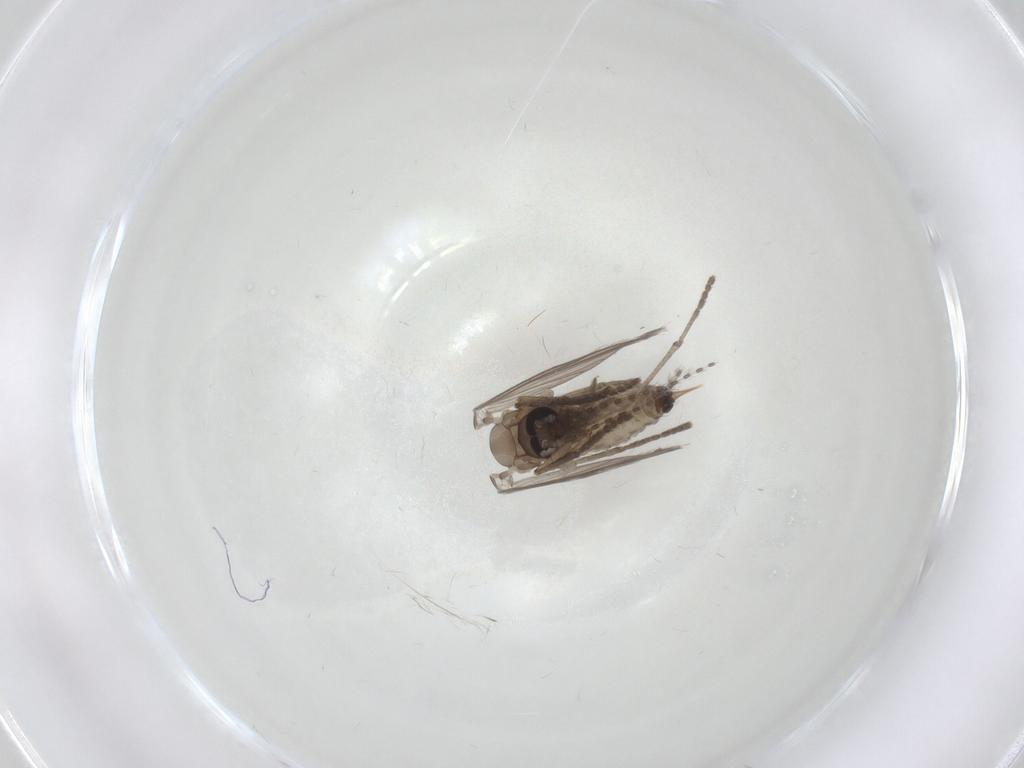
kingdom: Animalia
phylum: Arthropoda
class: Insecta
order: Diptera
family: Psychodidae
